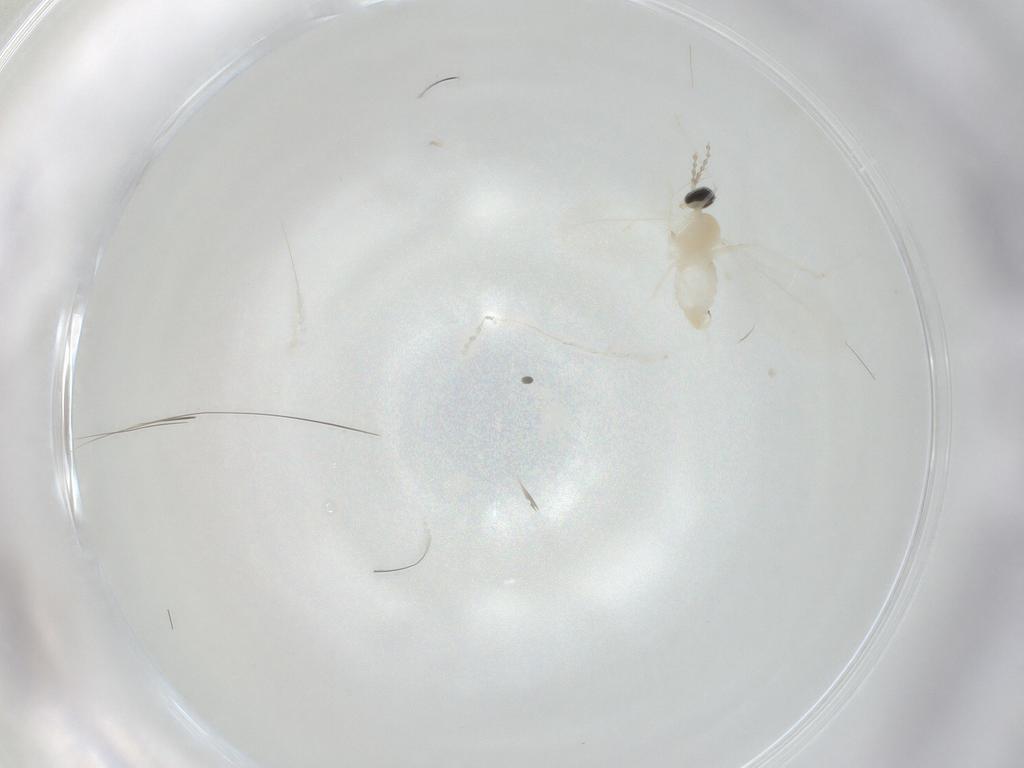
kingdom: Animalia
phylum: Arthropoda
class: Insecta
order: Diptera
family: Cecidomyiidae
